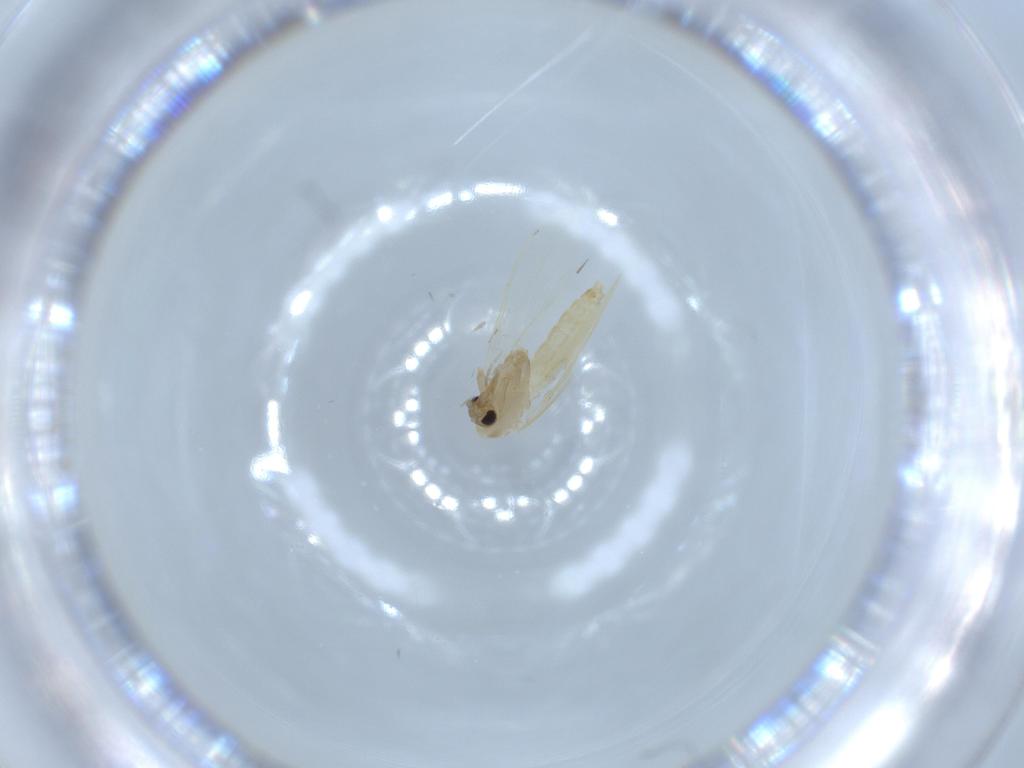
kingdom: Animalia
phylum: Arthropoda
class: Insecta
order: Diptera
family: Psychodidae
